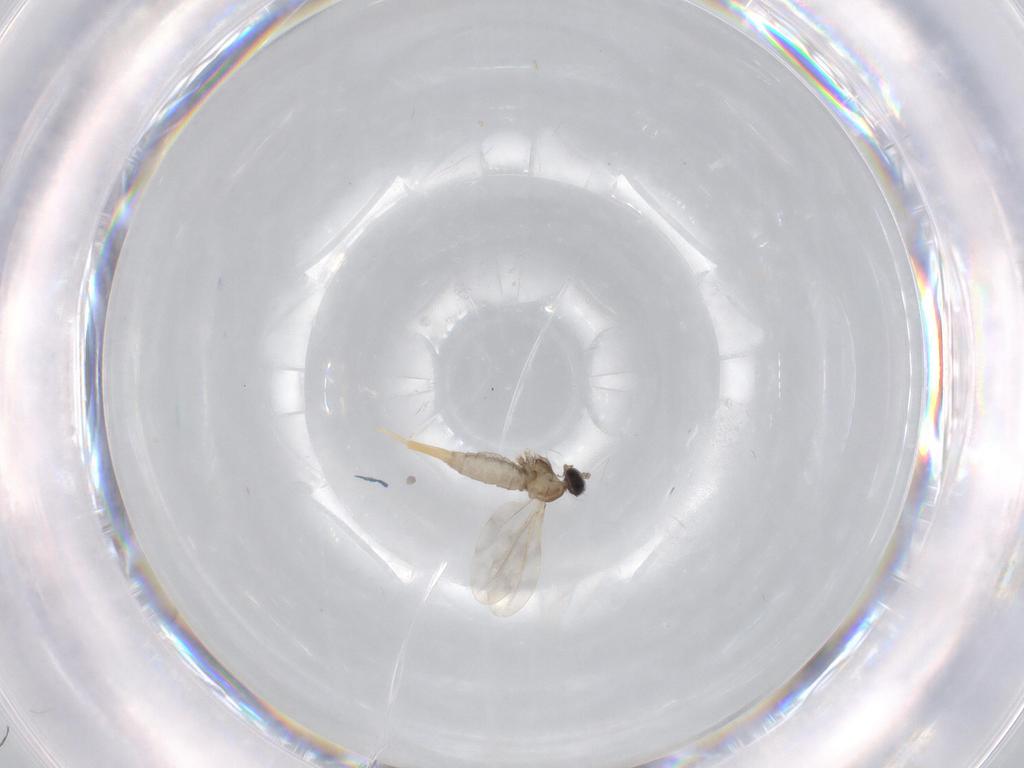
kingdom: Animalia
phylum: Arthropoda
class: Insecta
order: Diptera
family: Cecidomyiidae
